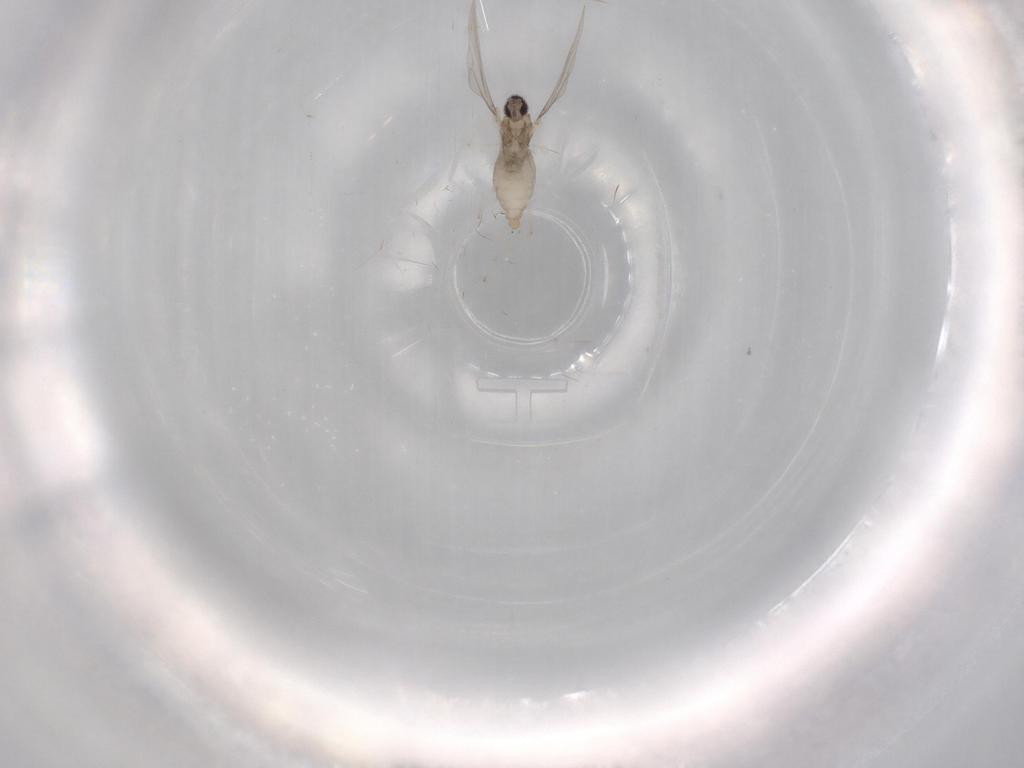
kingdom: Animalia
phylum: Arthropoda
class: Insecta
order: Diptera
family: Cecidomyiidae
